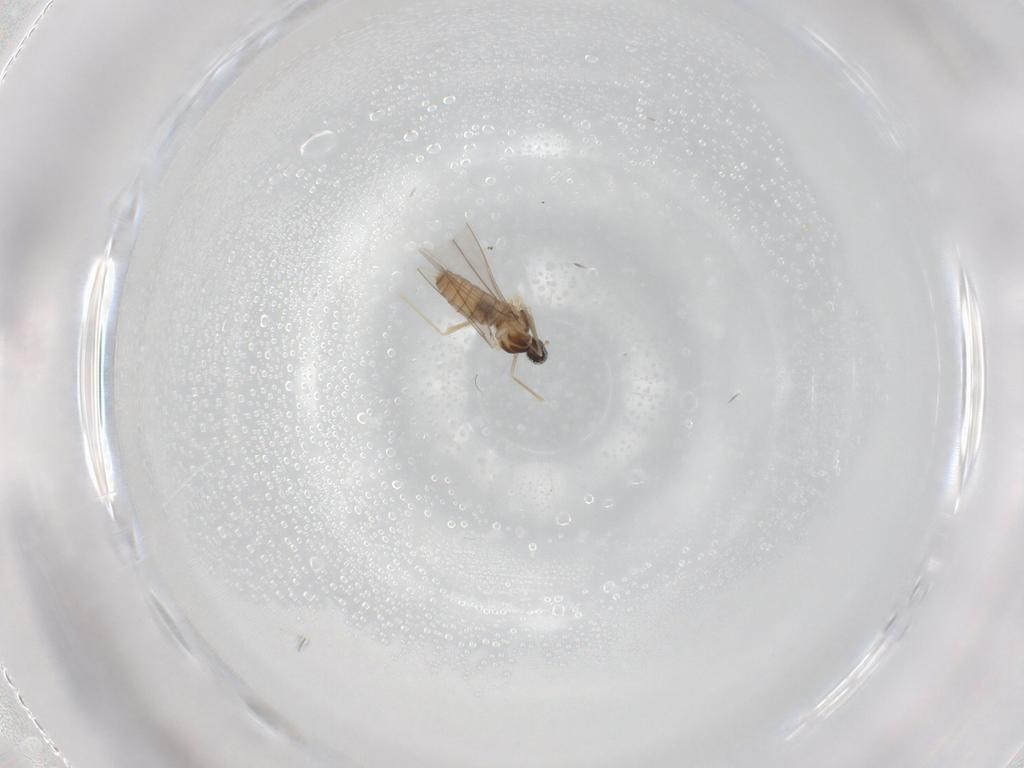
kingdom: Animalia
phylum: Arthropoda
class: Insecta
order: Diptera
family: Cecidomyiidae
